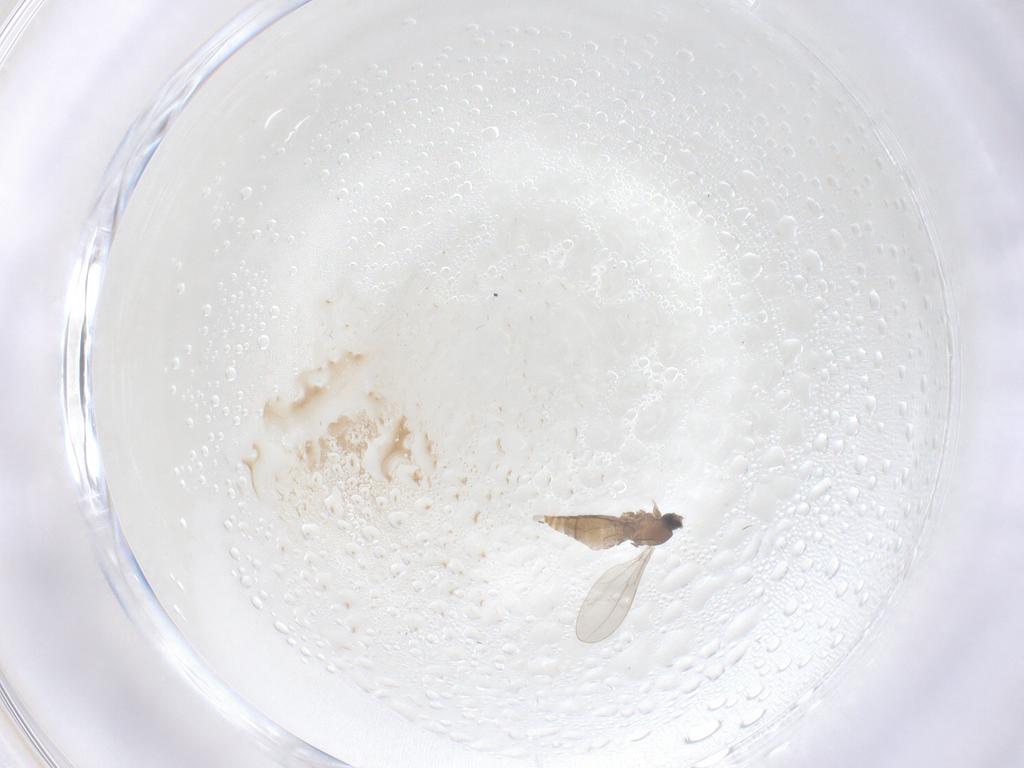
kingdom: Animalia
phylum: Arthropoda
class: Insecta
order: Diptera
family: Cecidomyiidae
